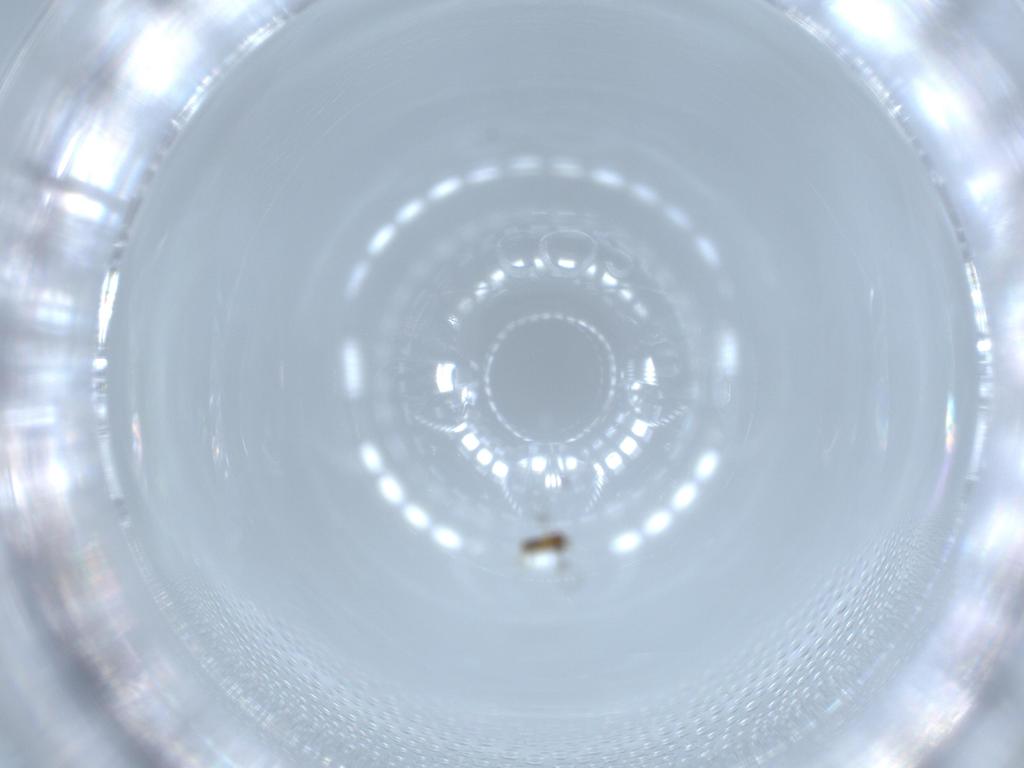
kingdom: Animalia
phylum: Arthropoda
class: Insecta
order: Hymenoptera
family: Trichogrammatidae
